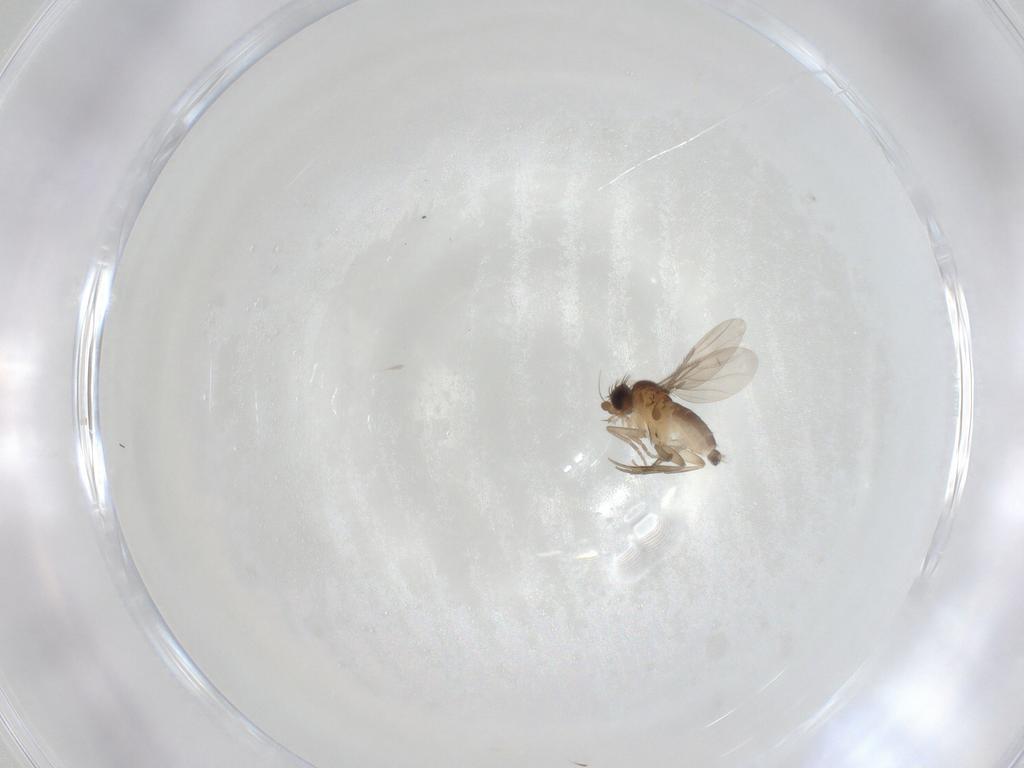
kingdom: Animalia
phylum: Arthropoda
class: Insecta
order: Diptera
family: Phoridae
